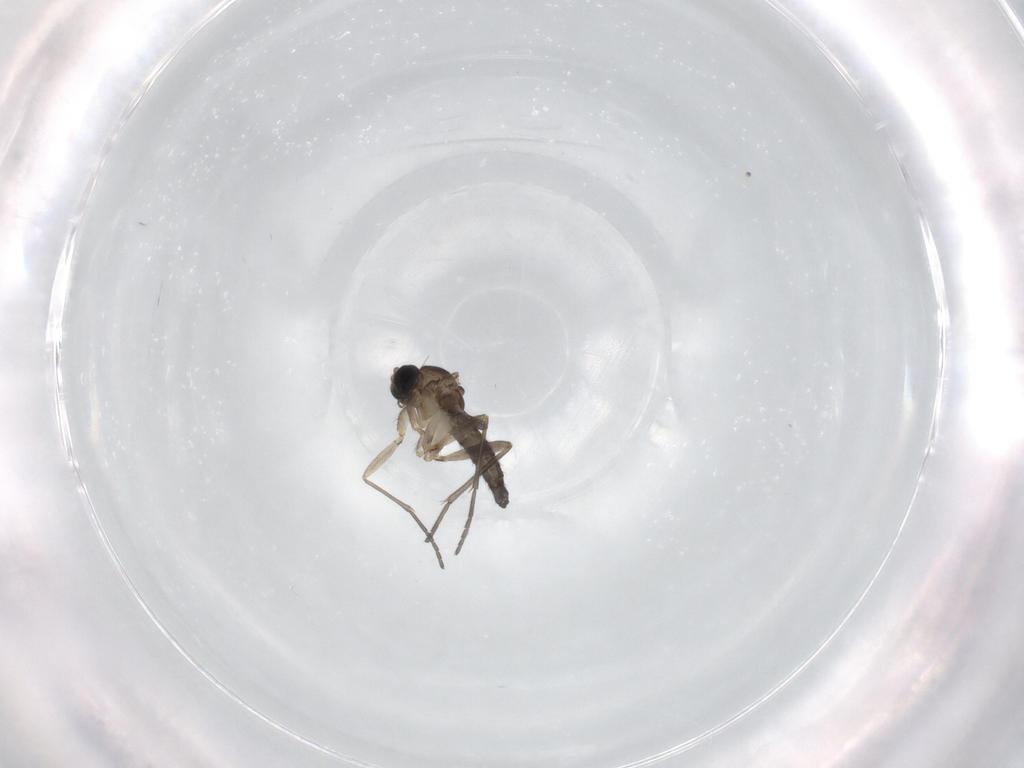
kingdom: Animalia
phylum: Arthropoda
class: Insecta
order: Diptera
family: Sciaridae
